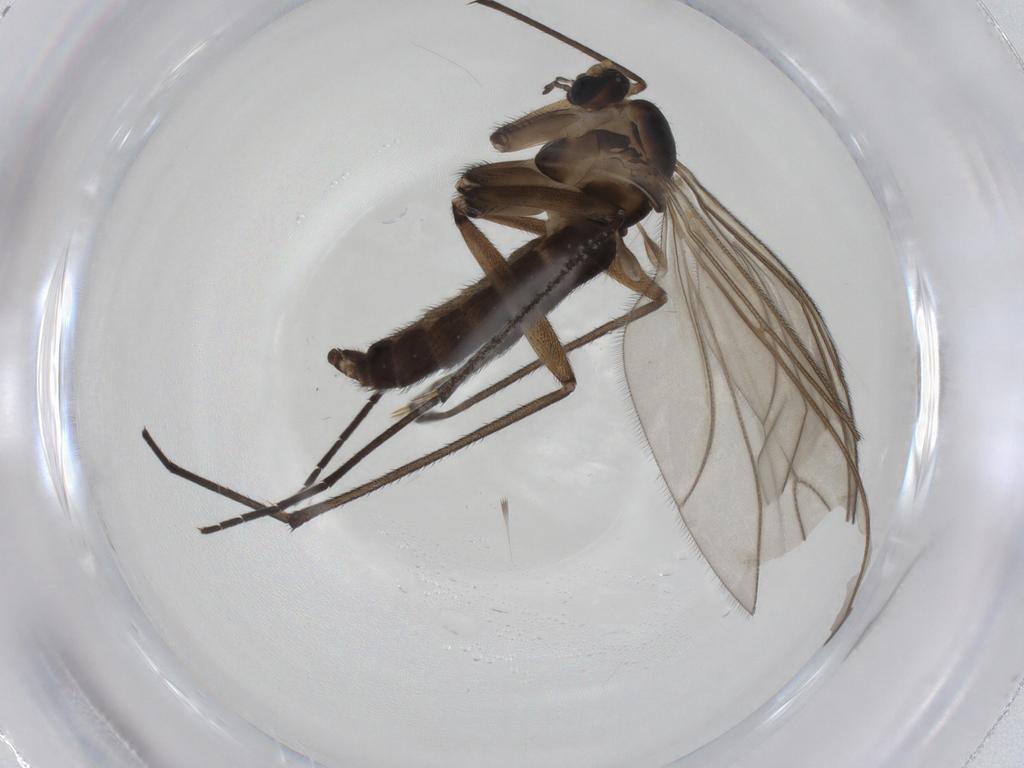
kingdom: Animalia
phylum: Arthropoda
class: Insecta
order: Diptera
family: Sciaridae
